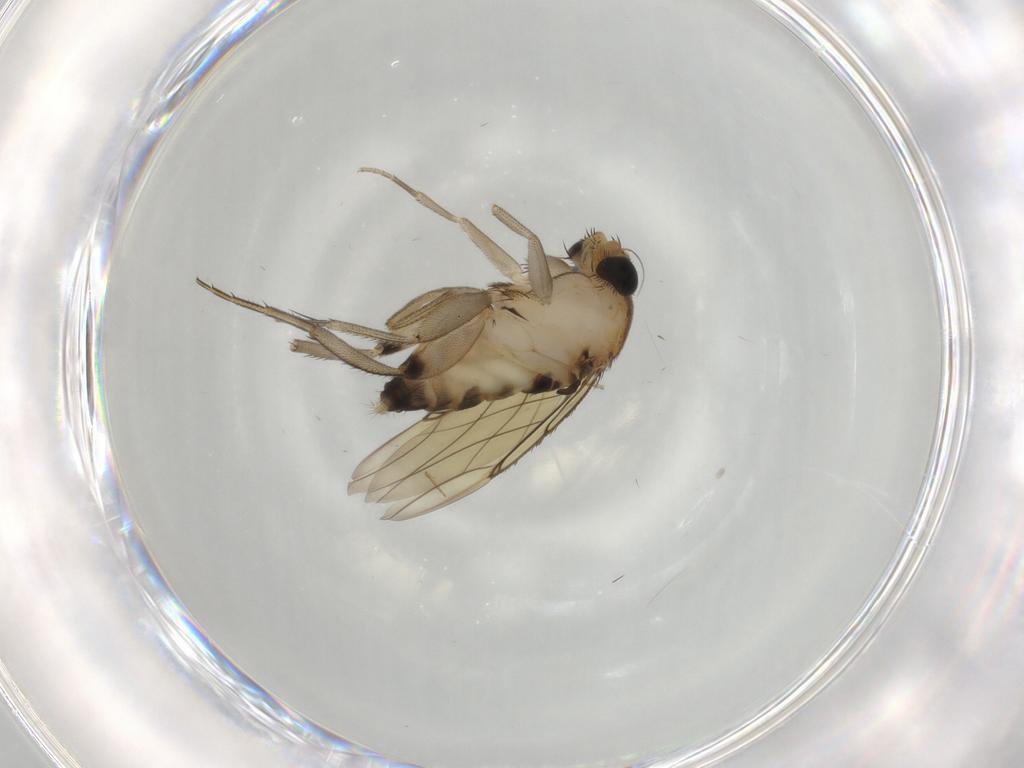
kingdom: Animalia
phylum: Arthropoda
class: Insecta
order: Diptera
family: Phoridae
